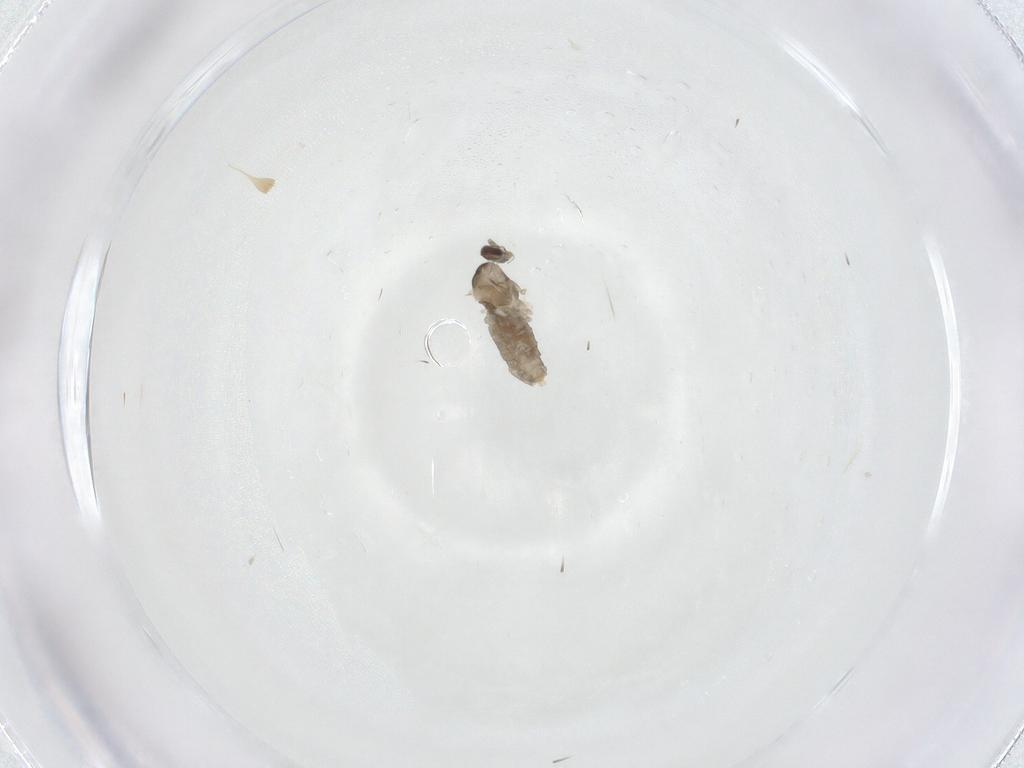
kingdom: Animalia
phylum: Arthropoda
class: Insecta
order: Diptera
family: Cecidomyiidae
